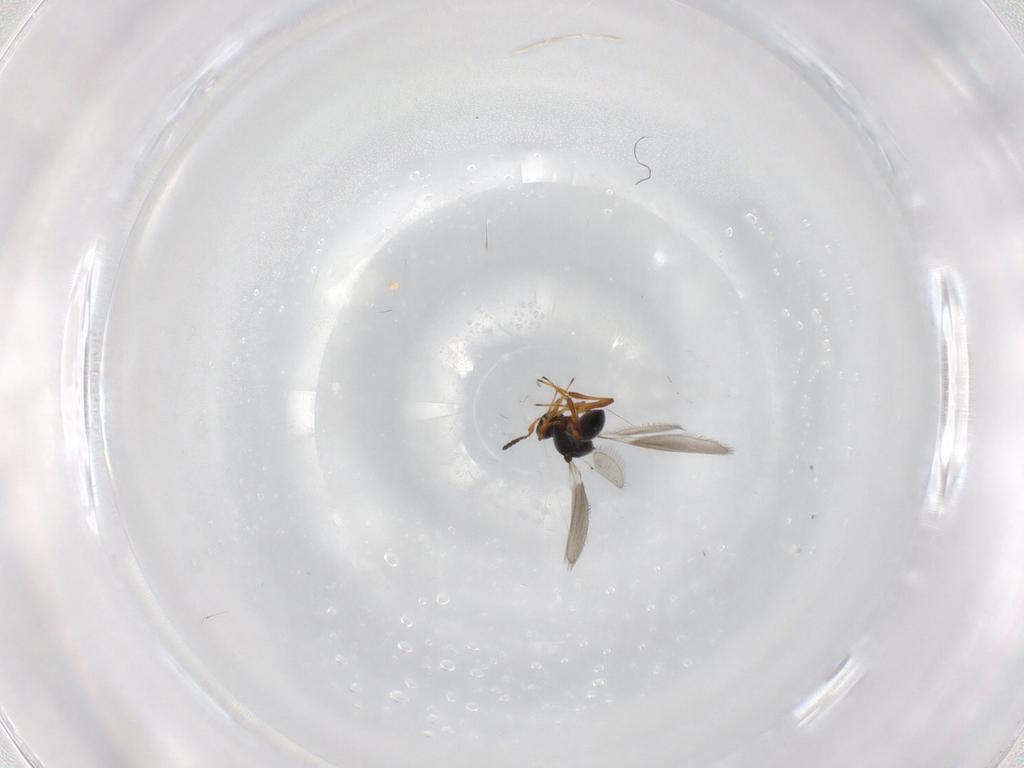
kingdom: Animalia
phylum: Arthropoda
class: Insecta
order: Hymenoptera
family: Platygastridae
